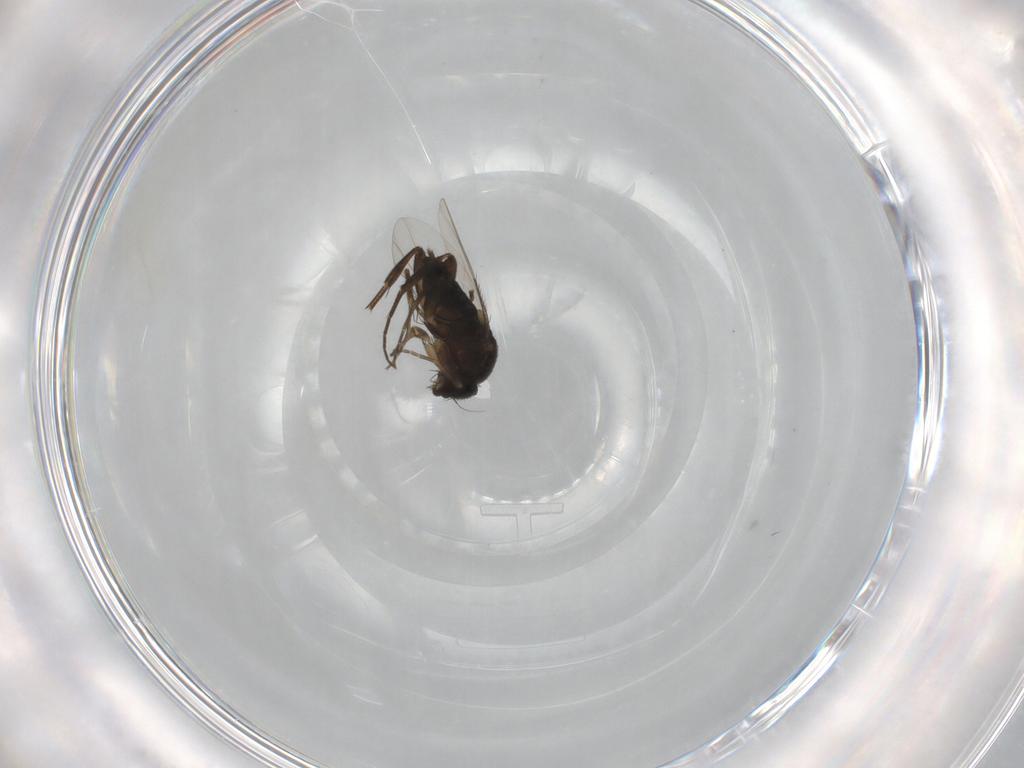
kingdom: Animalia
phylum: Arthropoda
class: Insecta
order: Diptera
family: Phoridae
